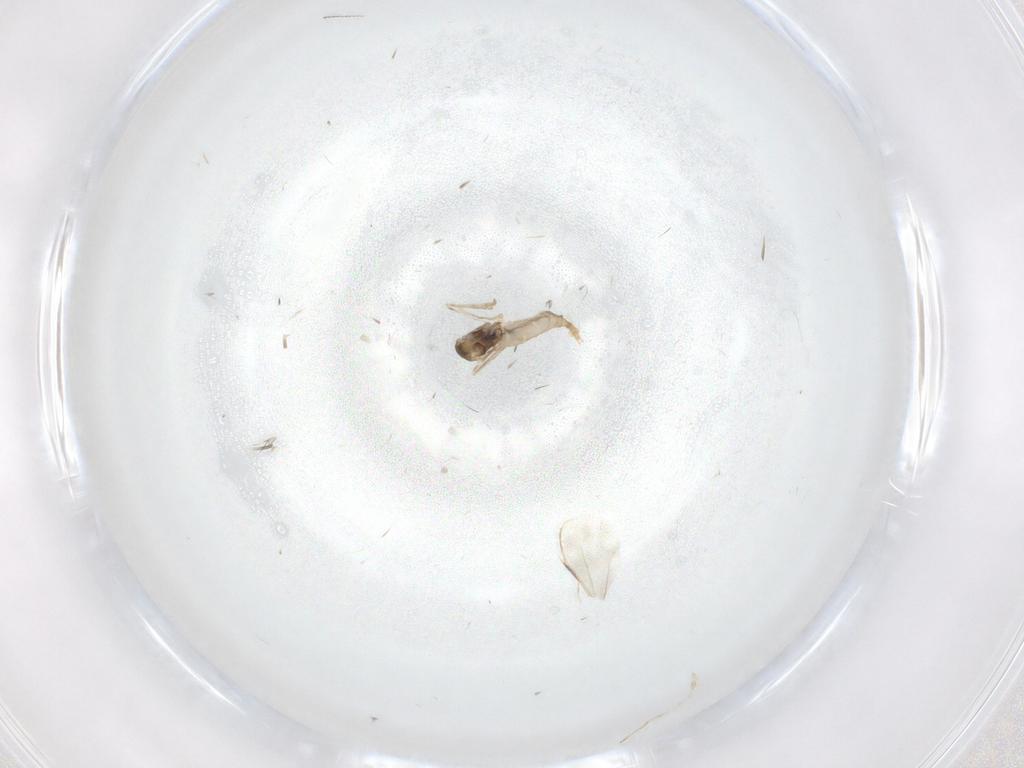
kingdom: Animalia
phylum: Arthropoda
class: Insecta
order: Diptera
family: Cecidomyiidae
